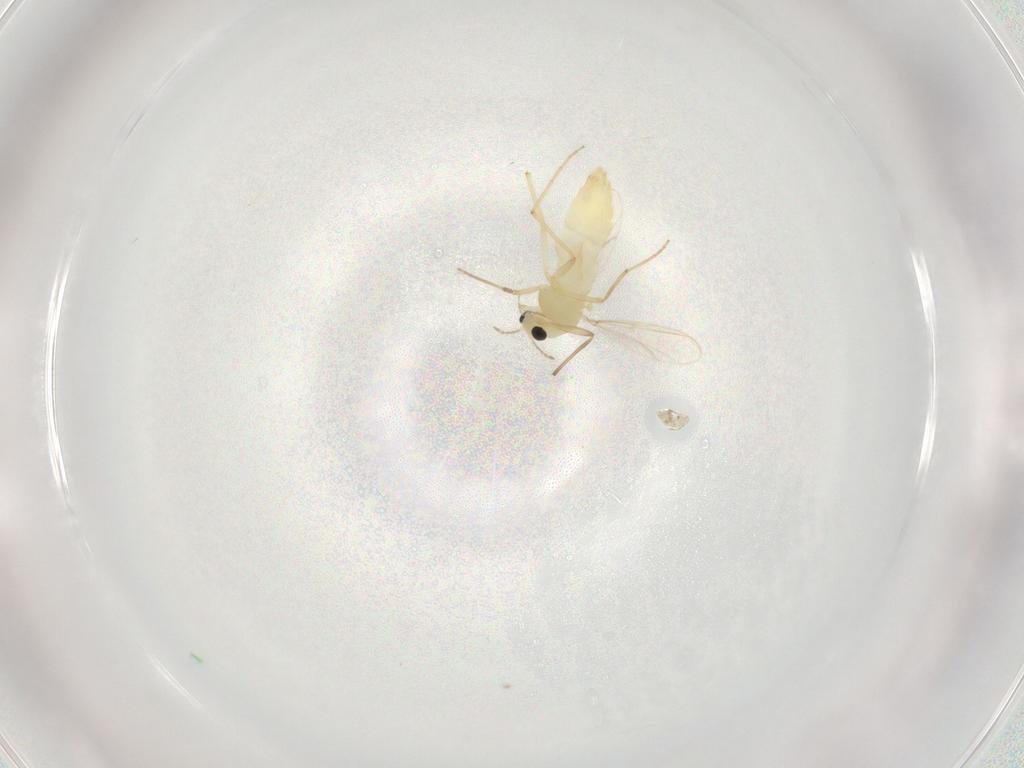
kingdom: Animalia
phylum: Arthropoda
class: Insecta
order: Diptera
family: Chironomidae
